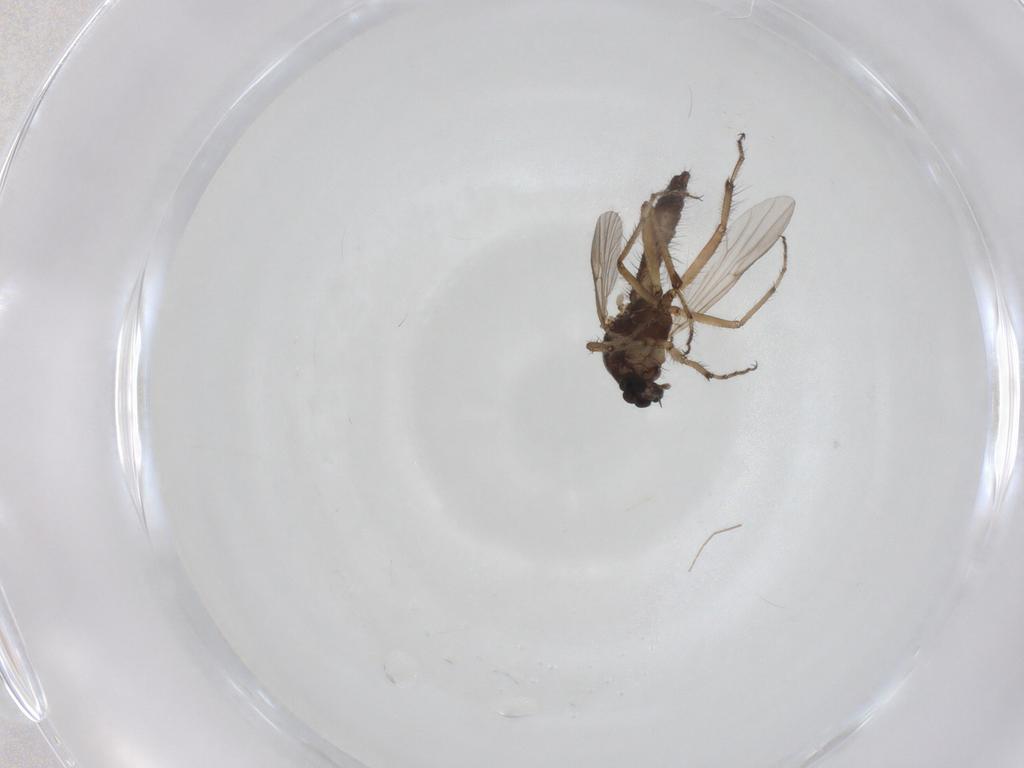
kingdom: Animalia
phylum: Arthropoda
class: Insecta
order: Diptera
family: Ceratopogonidae
